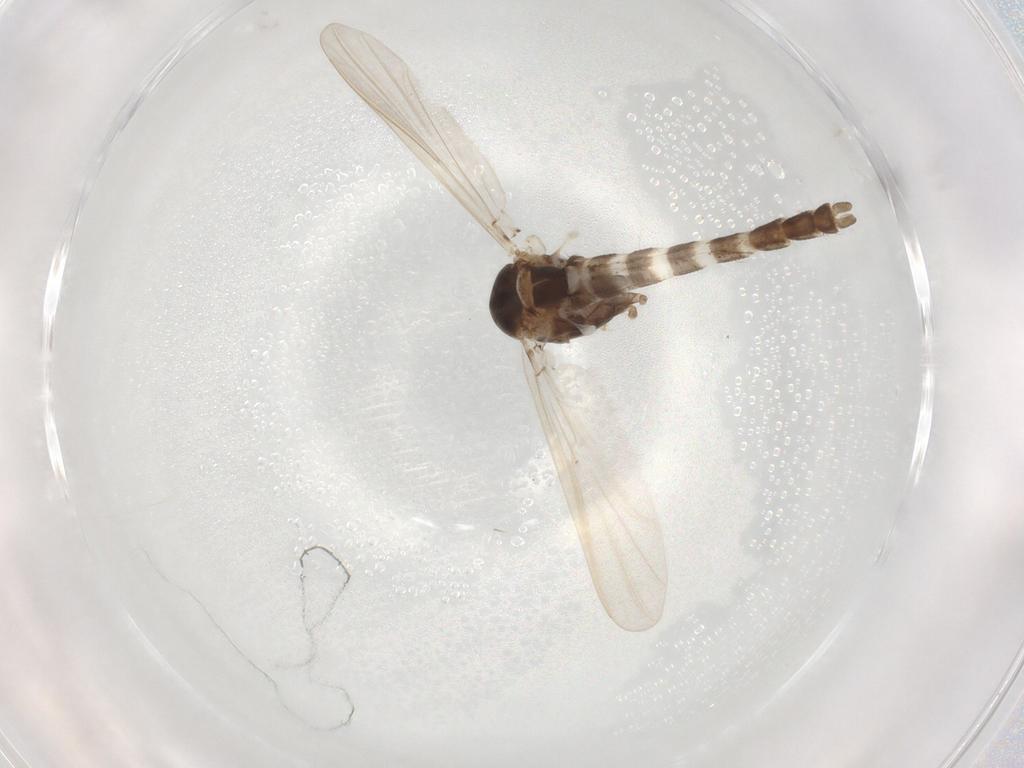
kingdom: Animalia
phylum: Arthropoda
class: Insecta
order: Diptera
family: Chironomidae
